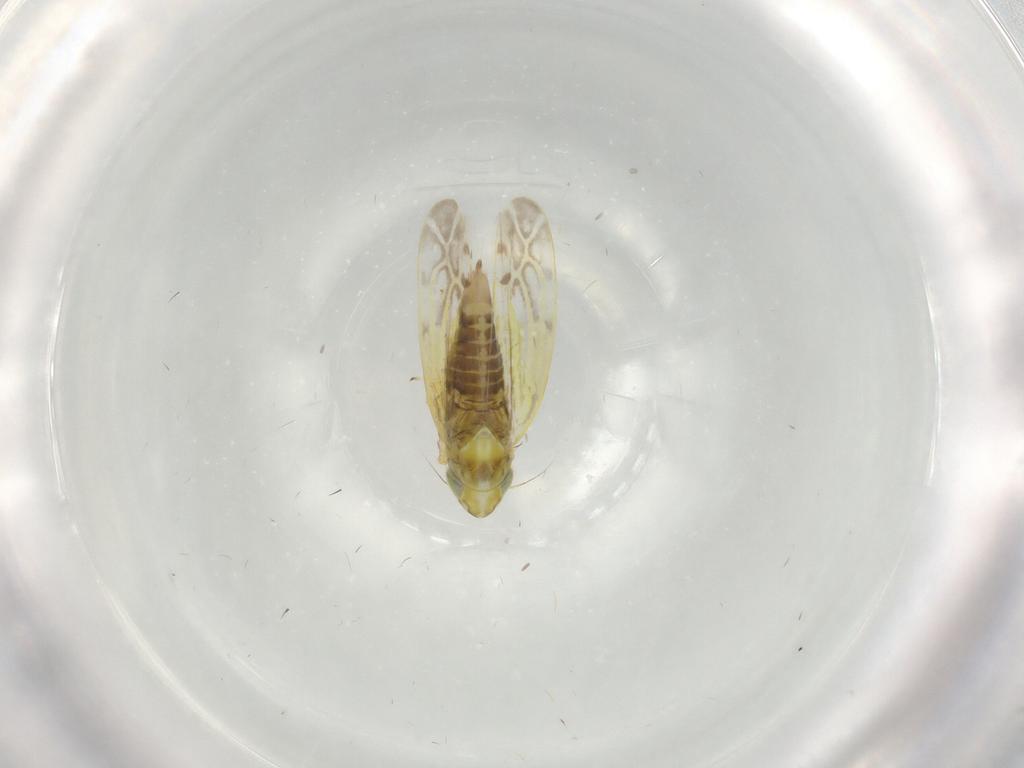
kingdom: Animalia
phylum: Arthropoda
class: Insecta
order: Hemiptera
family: Cicadellidae
